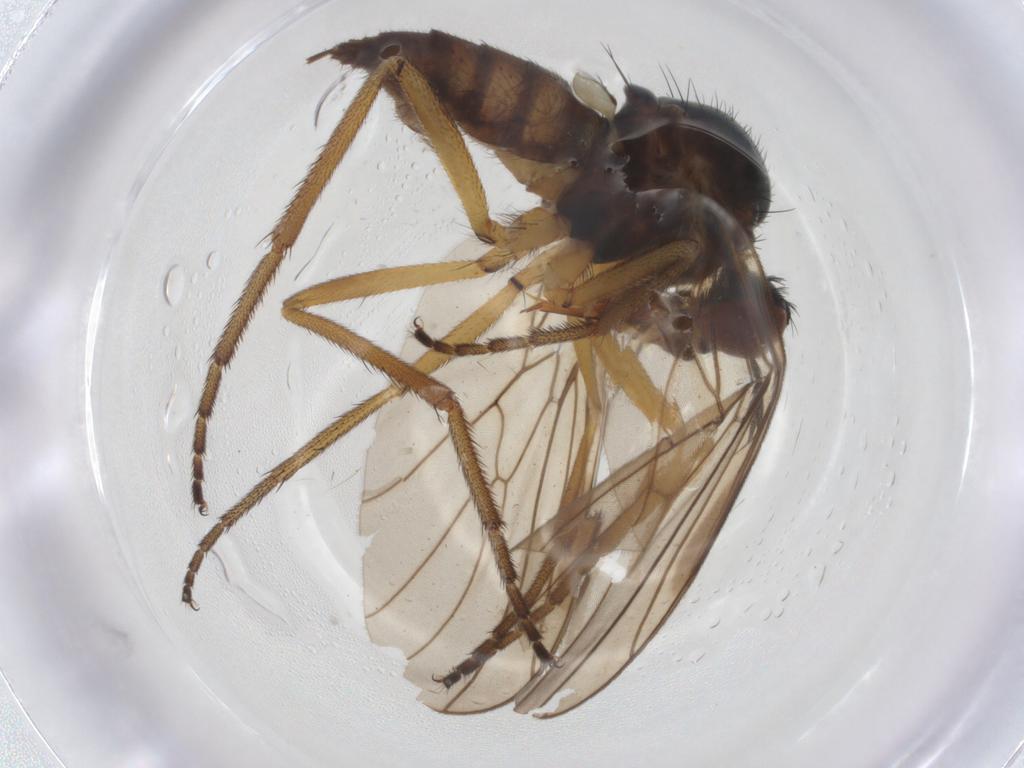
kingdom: Animalia
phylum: Arthropoda
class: Insecta
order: Diptera
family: Empididae
